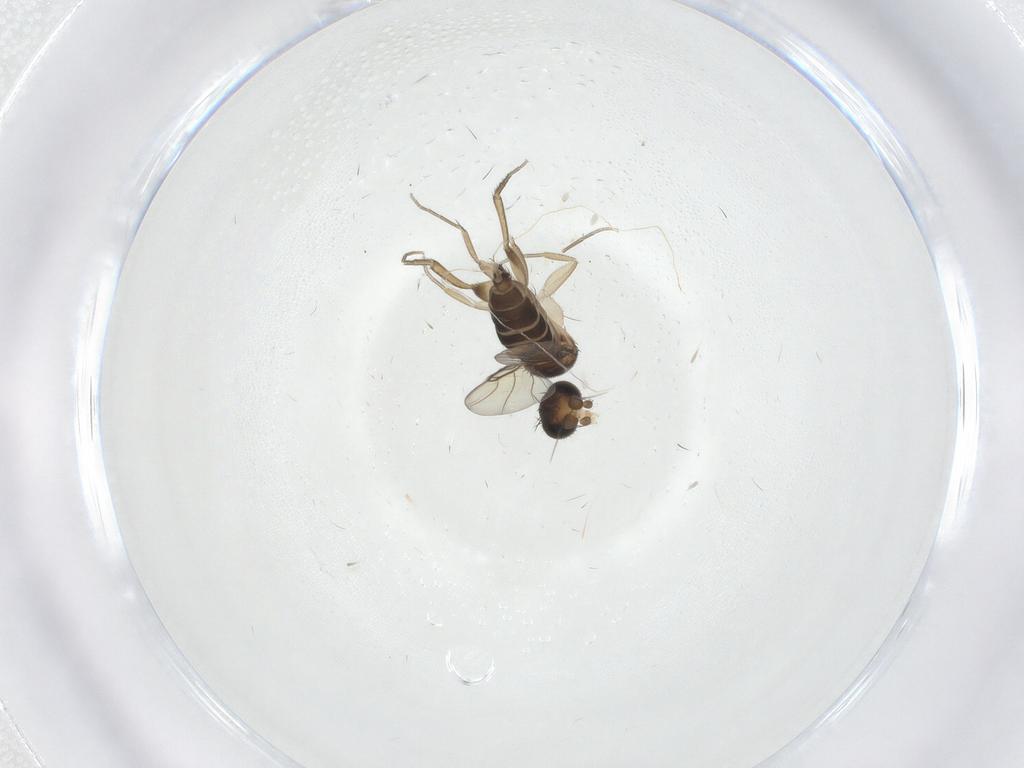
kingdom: Animalia
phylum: Arthropoda
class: Insecta
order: Diptera
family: Phoridae
